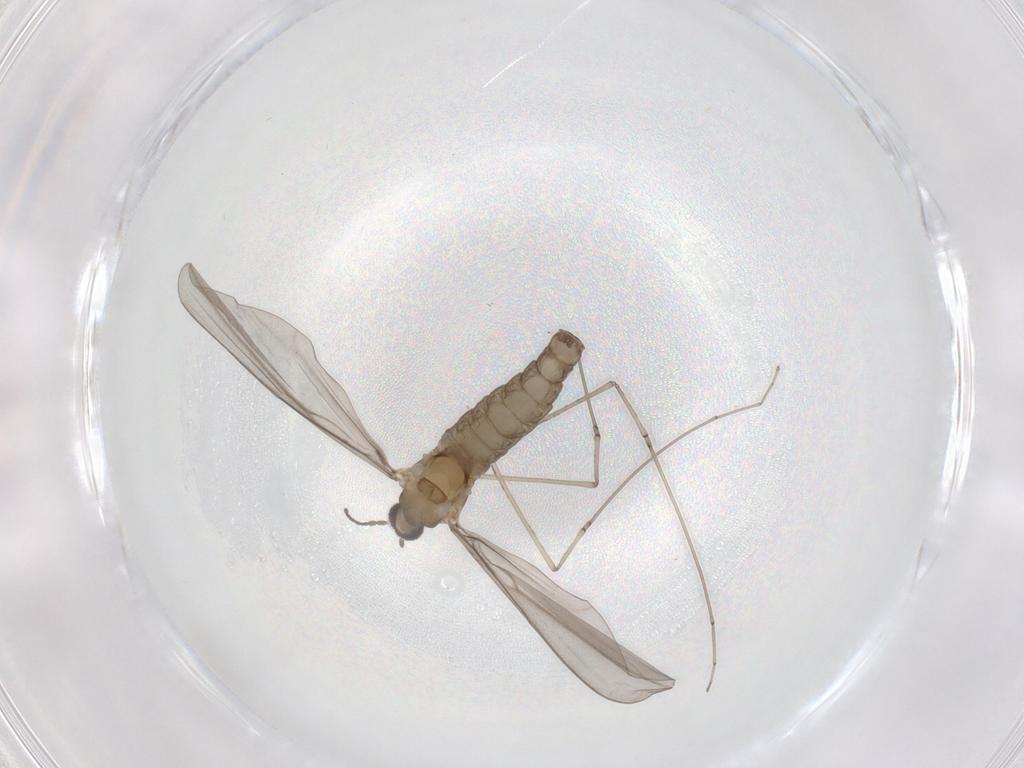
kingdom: Animalia
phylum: Arthropoda
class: Insecta
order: Diptera
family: Cecidomyiidae
